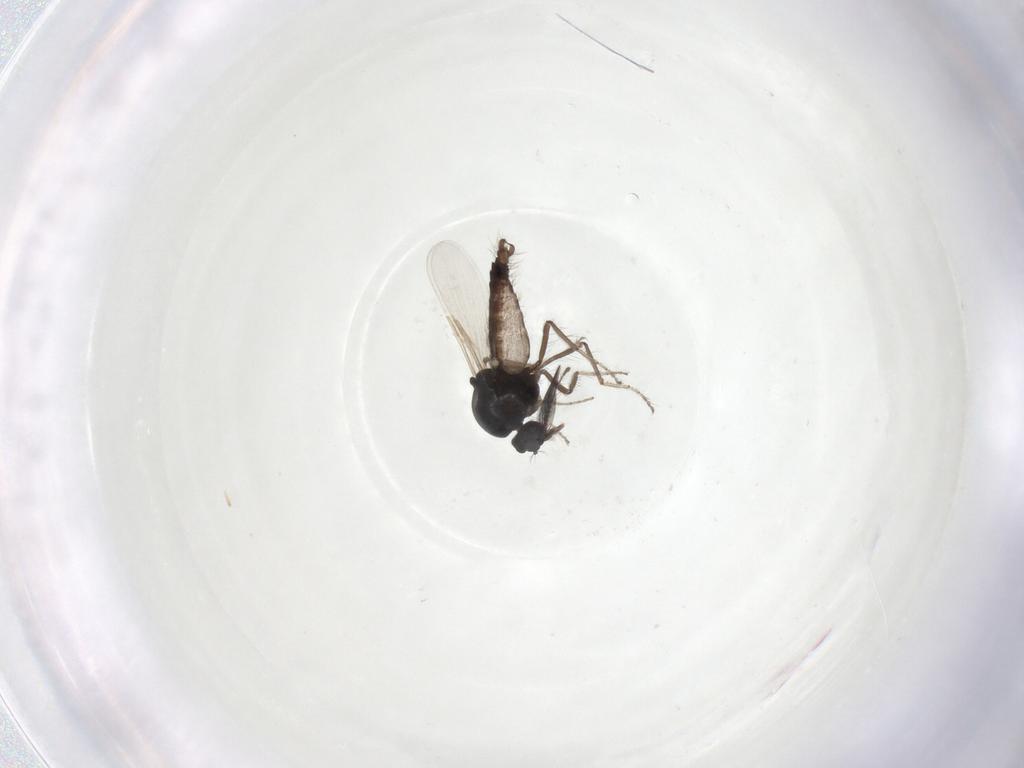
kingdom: Animalia
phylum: Arthropoda
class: Insecta
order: Diptera
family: Ceratopogonidae
